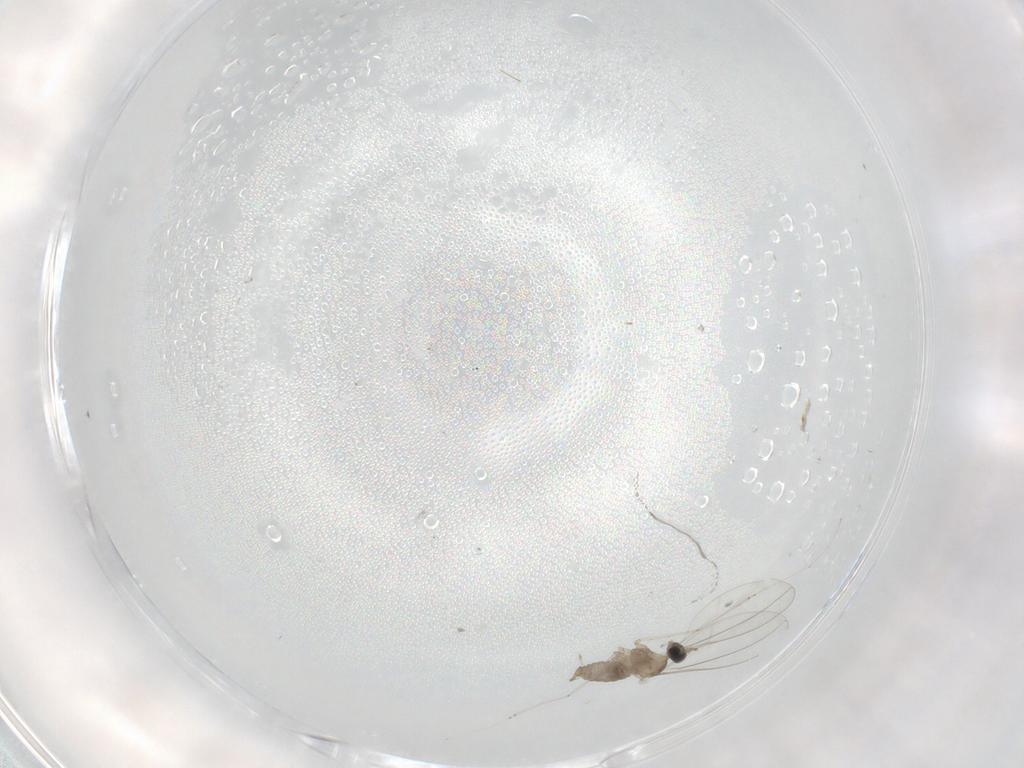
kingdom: Animalia
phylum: Arthropoda
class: Insecta
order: Diptera
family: Cecidomyiidae
